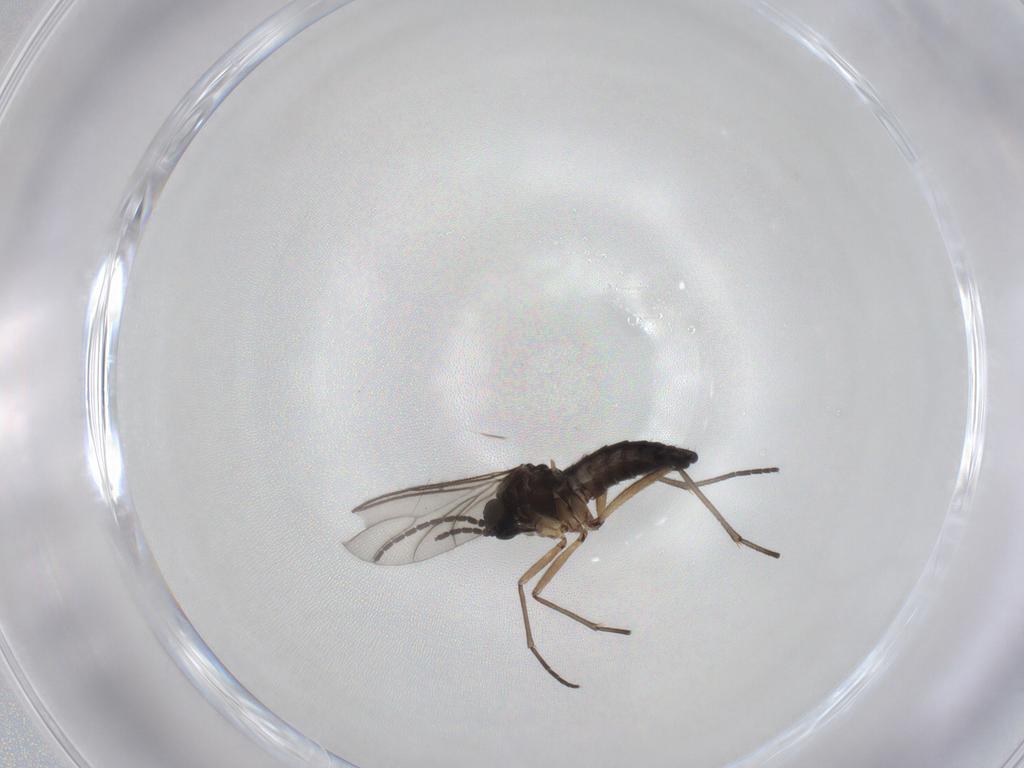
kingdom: Animalia
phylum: Arthropoda
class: Insecta
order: Diptera
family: Sciaridae
